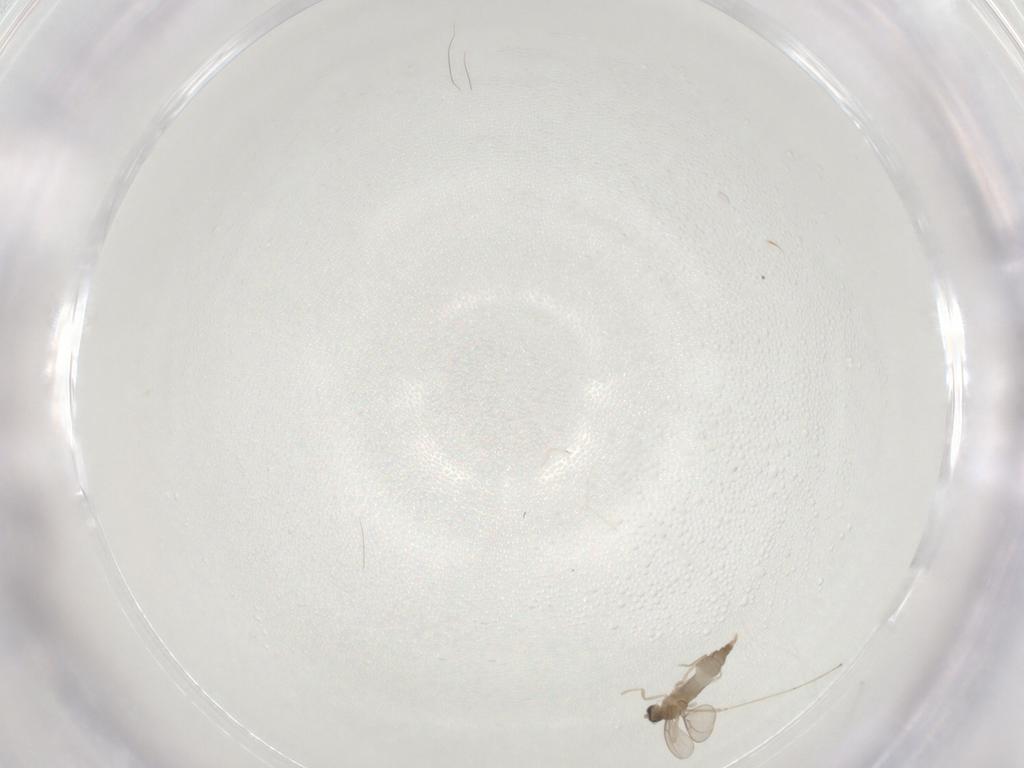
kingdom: Animalia
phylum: Arthropoda
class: Insecta
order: Diptera
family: Cecidomyiidae
